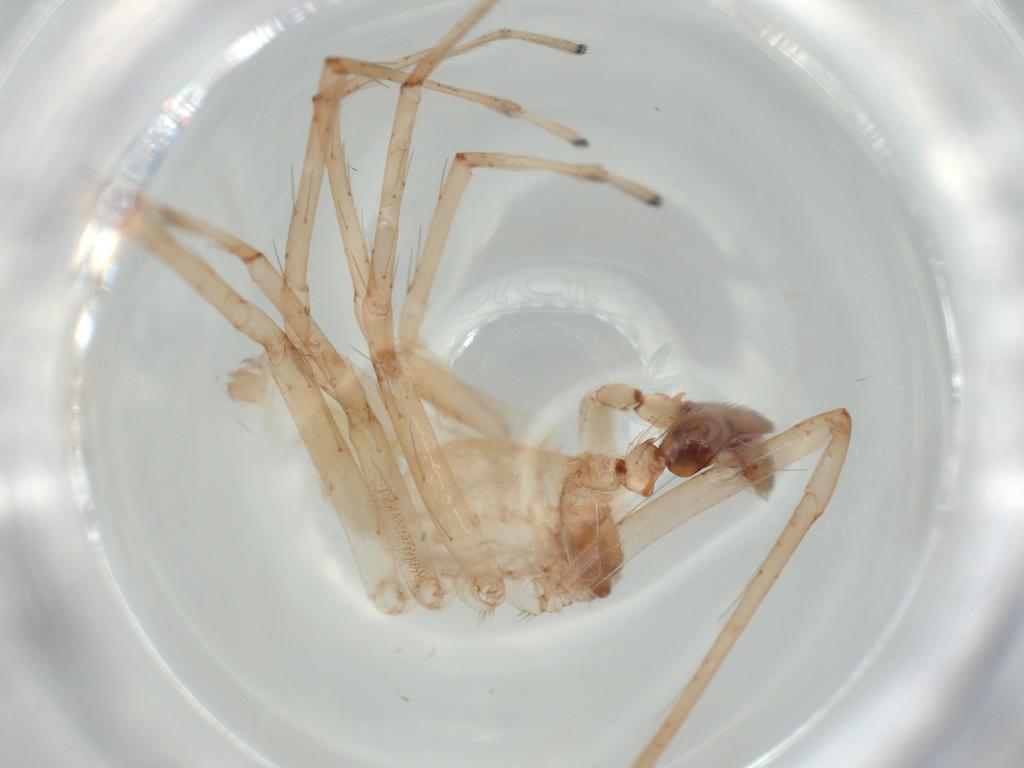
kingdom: Animalia
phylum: Arthropoda
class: Arachnida
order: Araneae
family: Anyphaenidae
